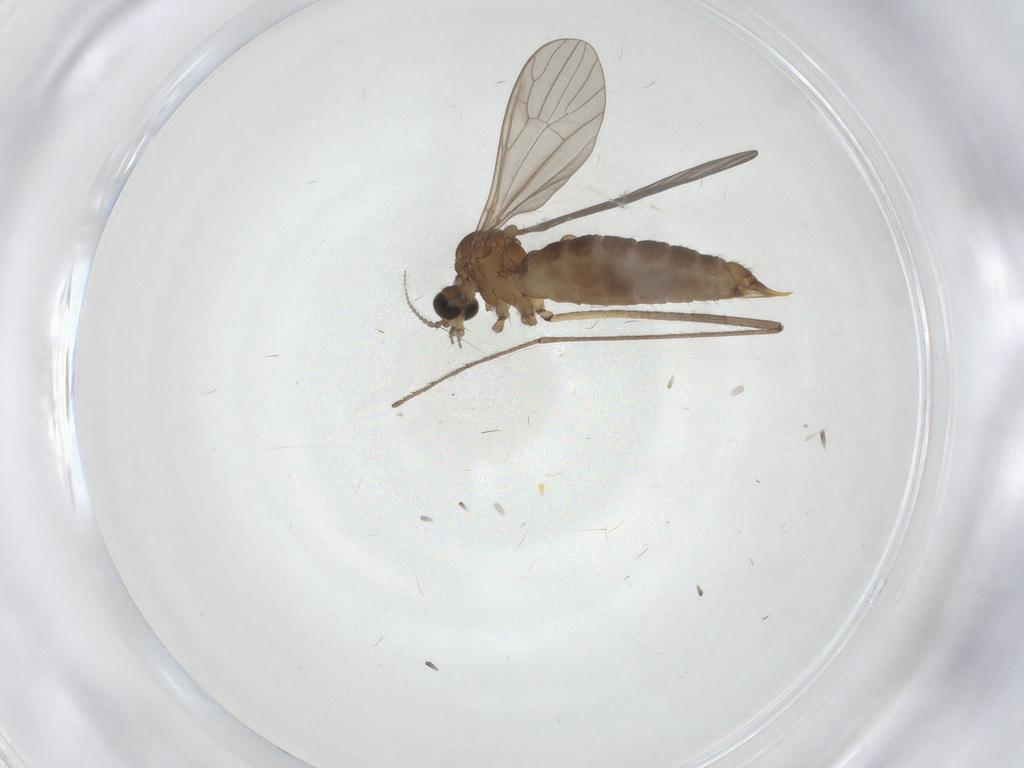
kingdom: Animalia
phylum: Arthropoda
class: Insecta
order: Diptera
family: Limoniidae
